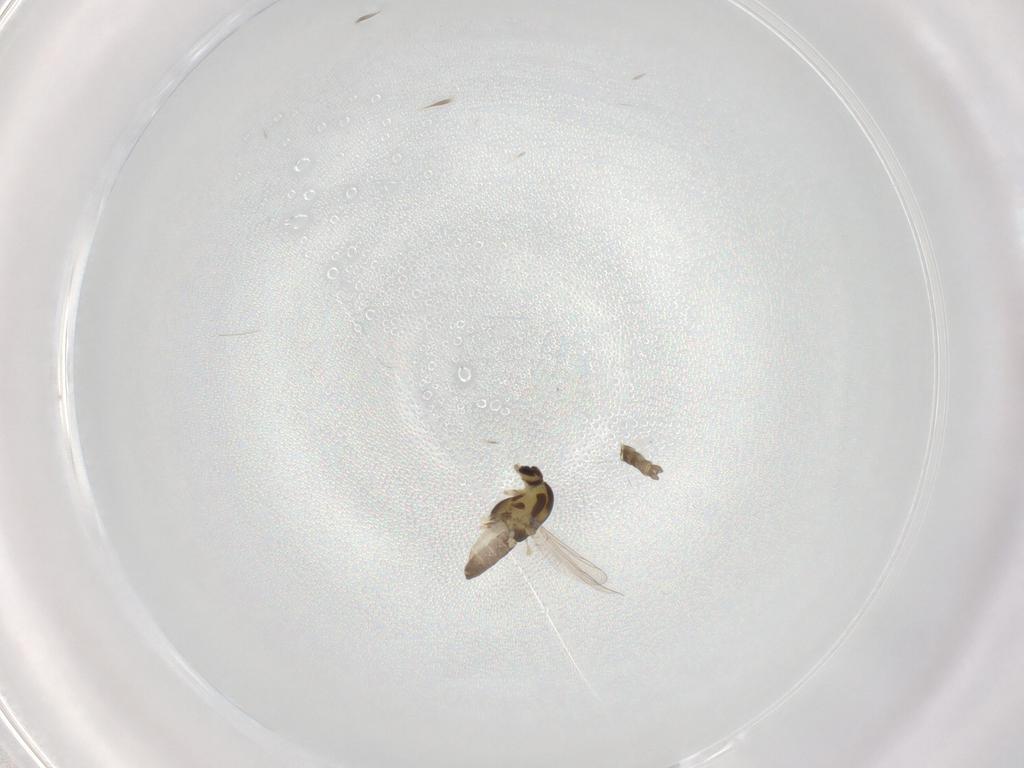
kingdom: Animalia
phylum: Arthropoda
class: Insecta
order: Diptera
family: Chironomidae
